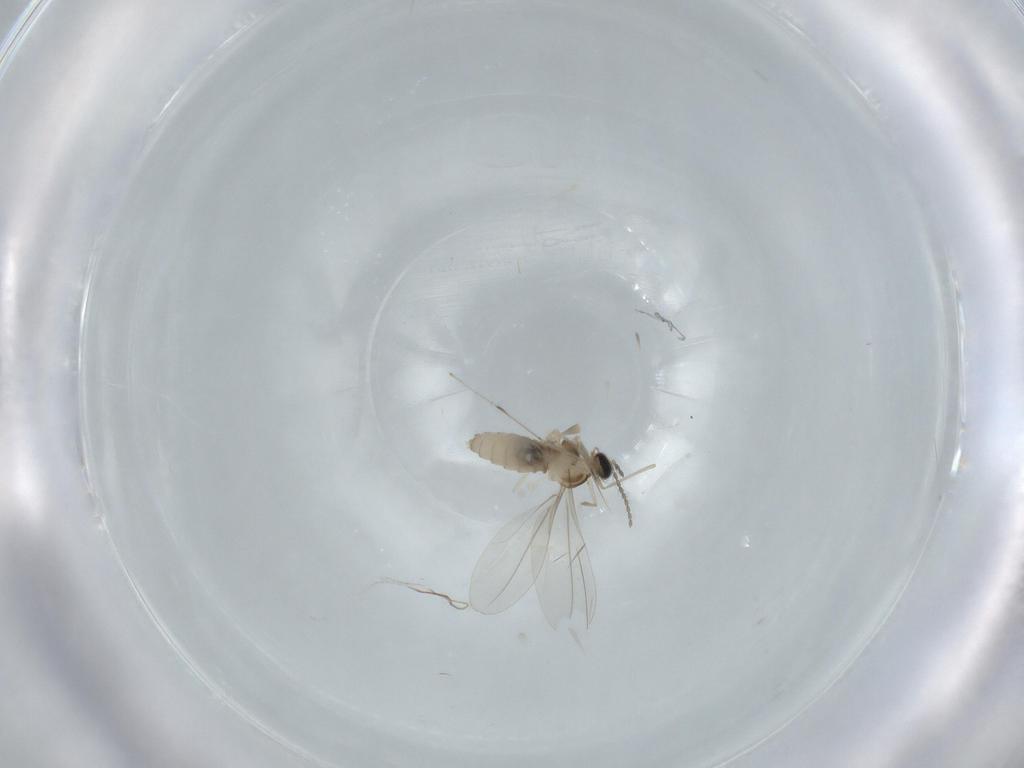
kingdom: Animalia
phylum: Arthropoda
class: Insecta
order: Diptera
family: Cecidomyiidae
